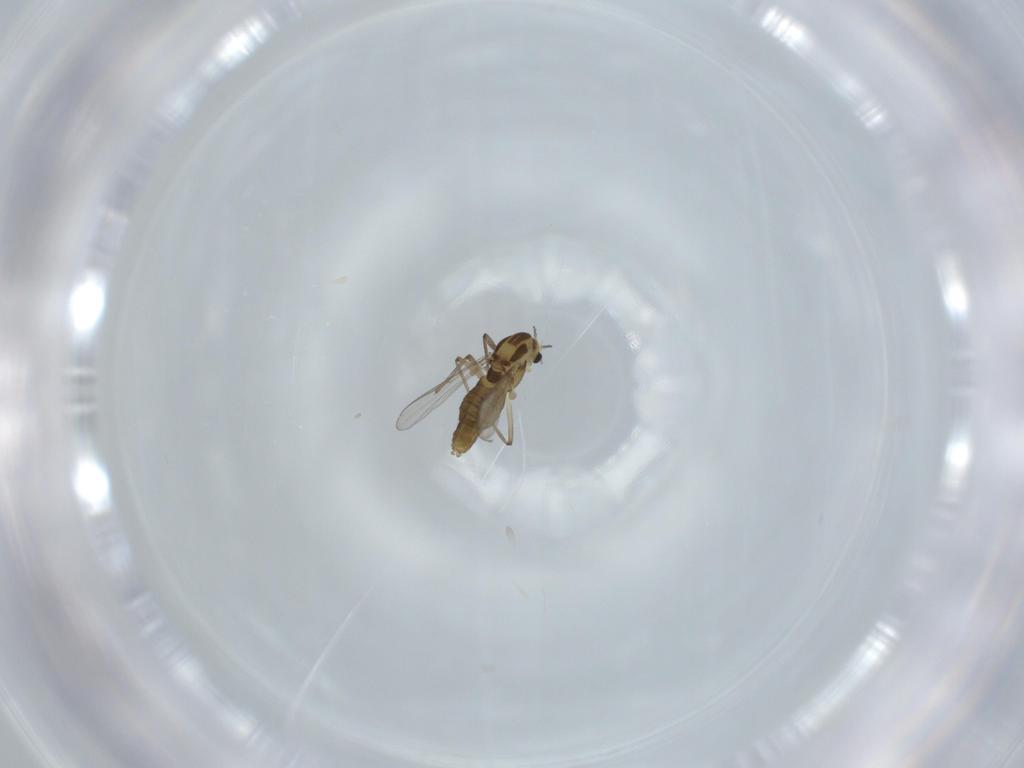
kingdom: Animalia
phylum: Arthropoda
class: Insecta
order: Diptera
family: Chironomidae
